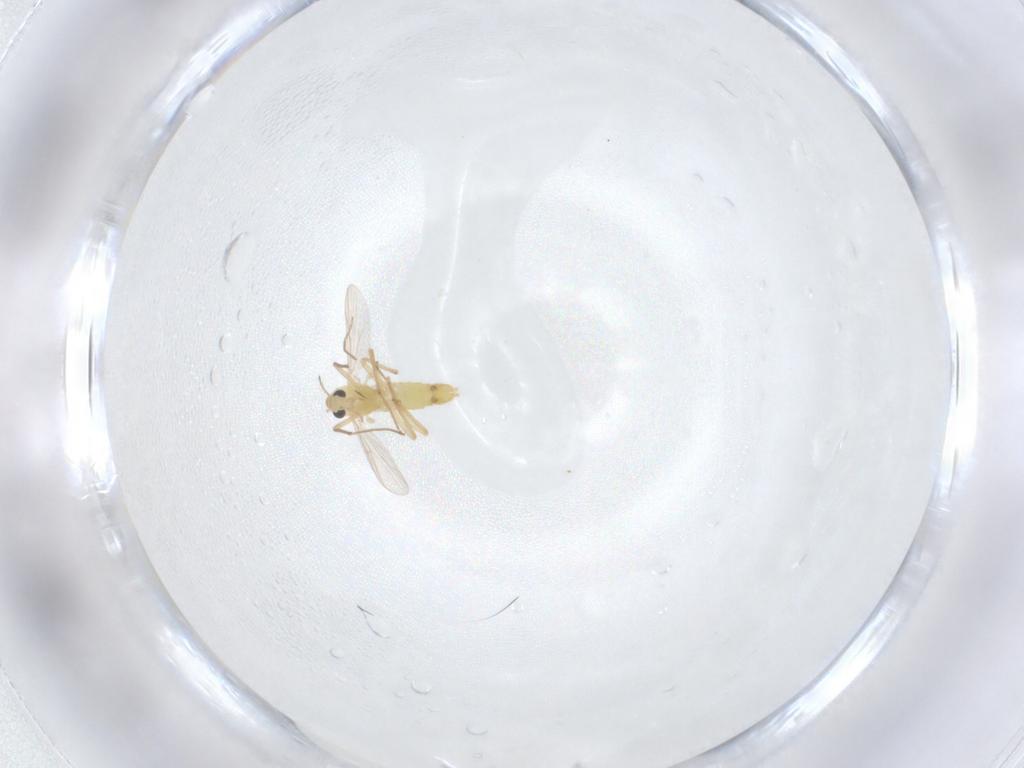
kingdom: Animalia
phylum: Arthropoda
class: Insecta
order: Diptera
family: Chironomidae
